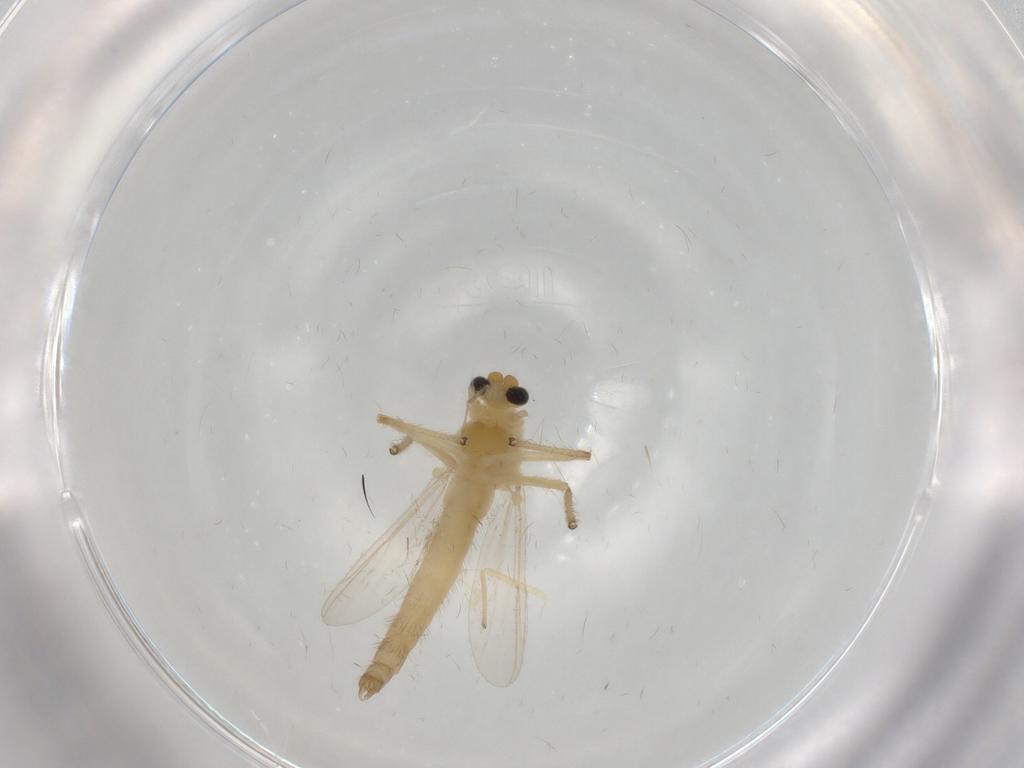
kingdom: Animalia
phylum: Arthropoda
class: Insecta
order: Diptera
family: Chironomidae
